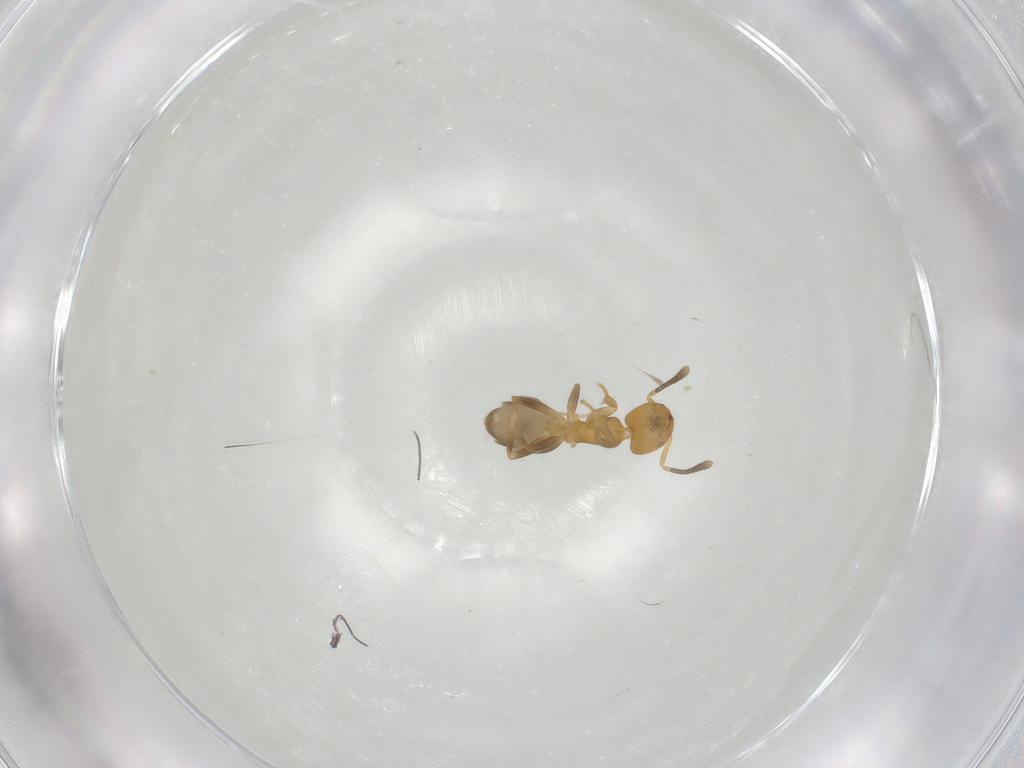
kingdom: Animalia
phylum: Arthropoda
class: Insecta
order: Hymenoptera
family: Formicidae
